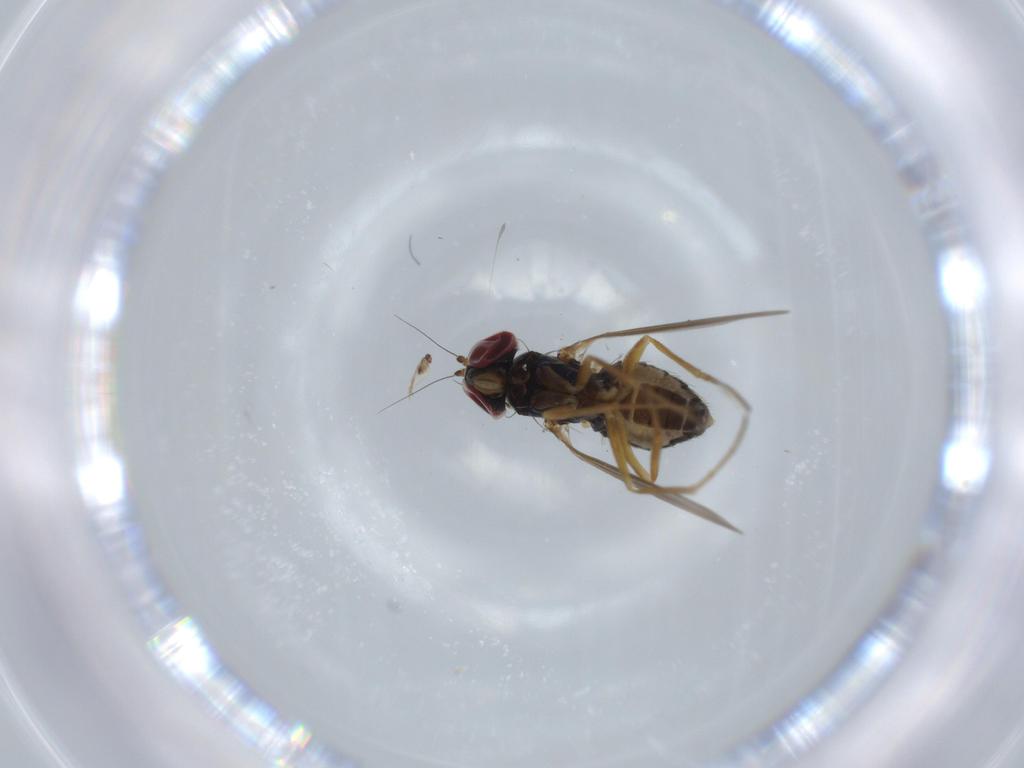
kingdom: Animalia
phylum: Arthropoda
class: Insecta
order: Diptera
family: Dolichopodidae
